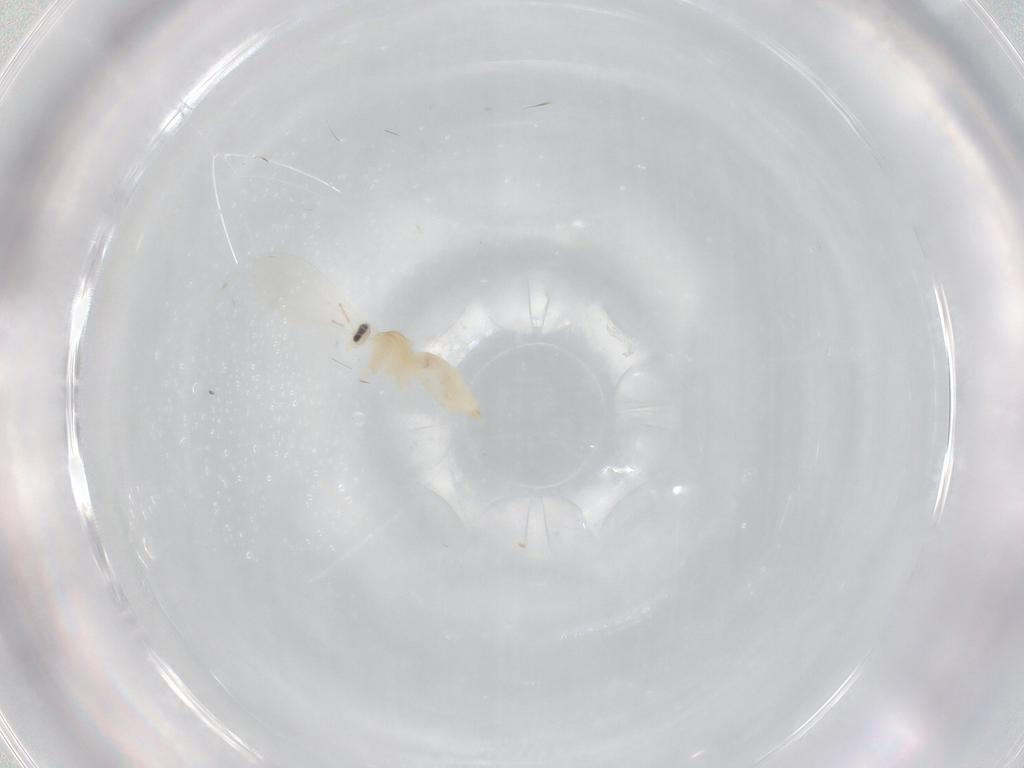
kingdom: Animalia
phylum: Arthropoda
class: Insecta
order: Diptera
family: Cecidomyiidae
